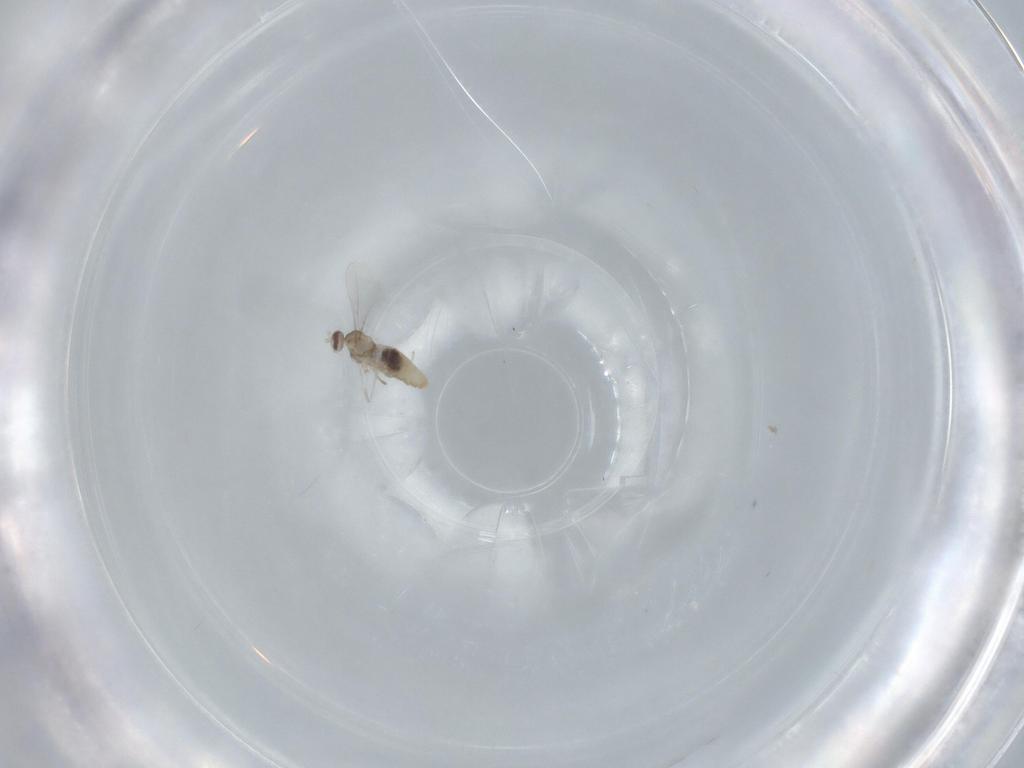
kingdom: Animalia
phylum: Arthropoda
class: Insecta
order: Diptera
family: Cecidomyiidae
